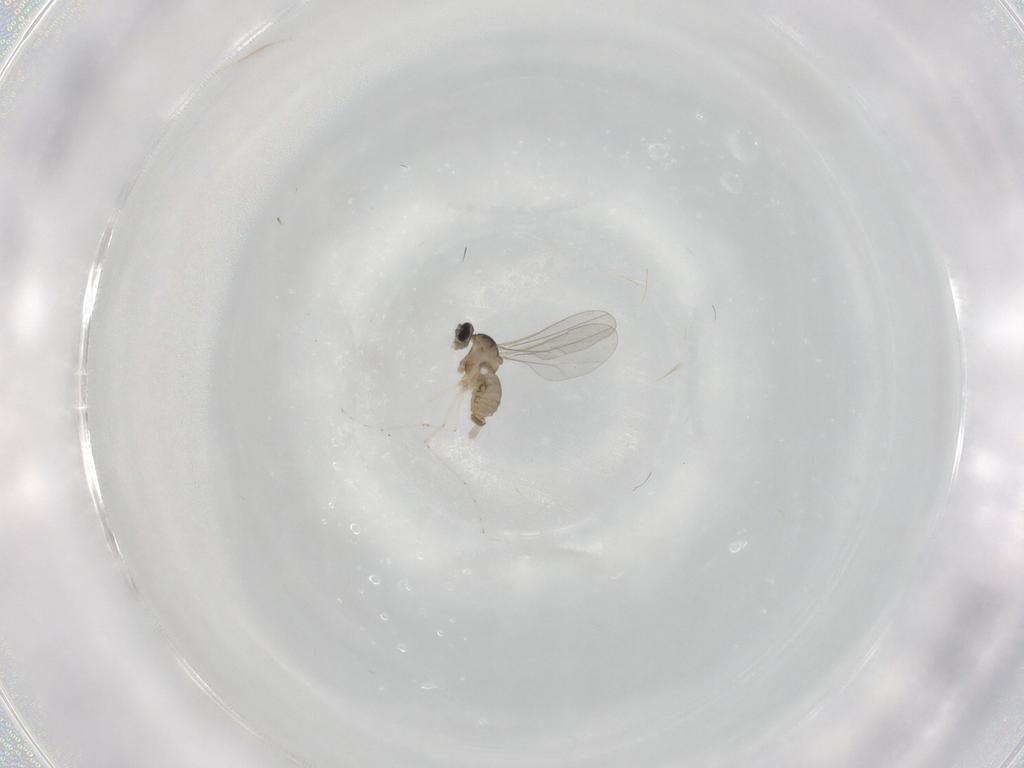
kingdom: Animalia
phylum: Arthropoda
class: Insecta
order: Diptera
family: Cecidomyiidae
